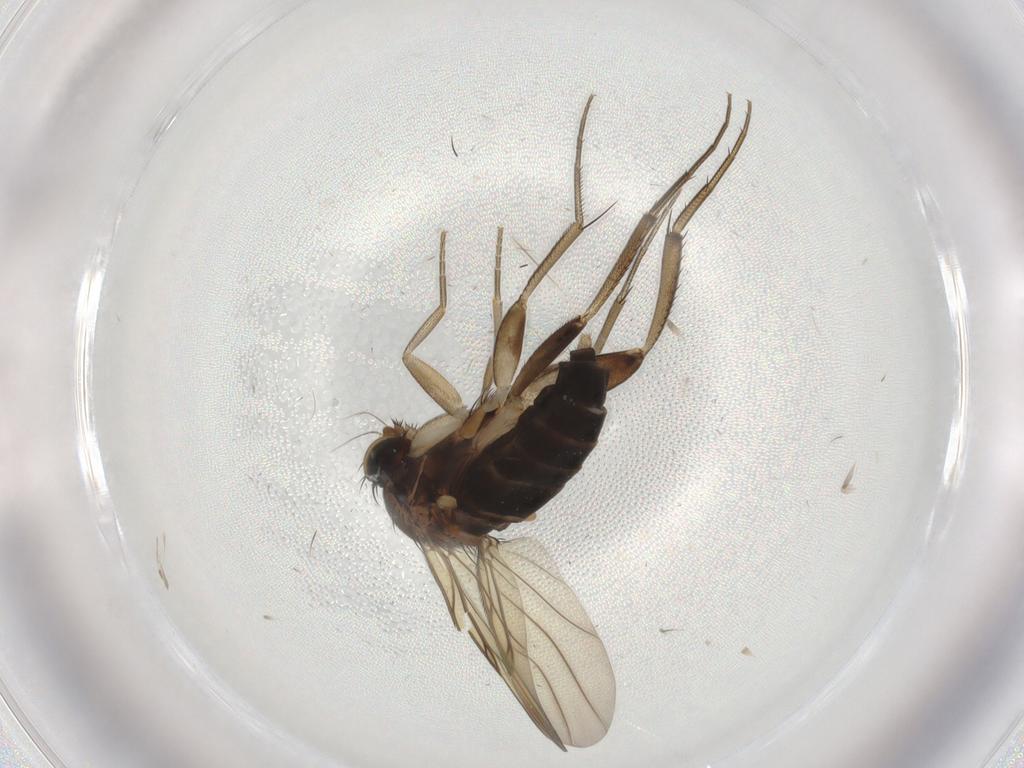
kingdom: Animalia
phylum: Arthropoda
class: Insecta
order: Diptera
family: Phoridae
